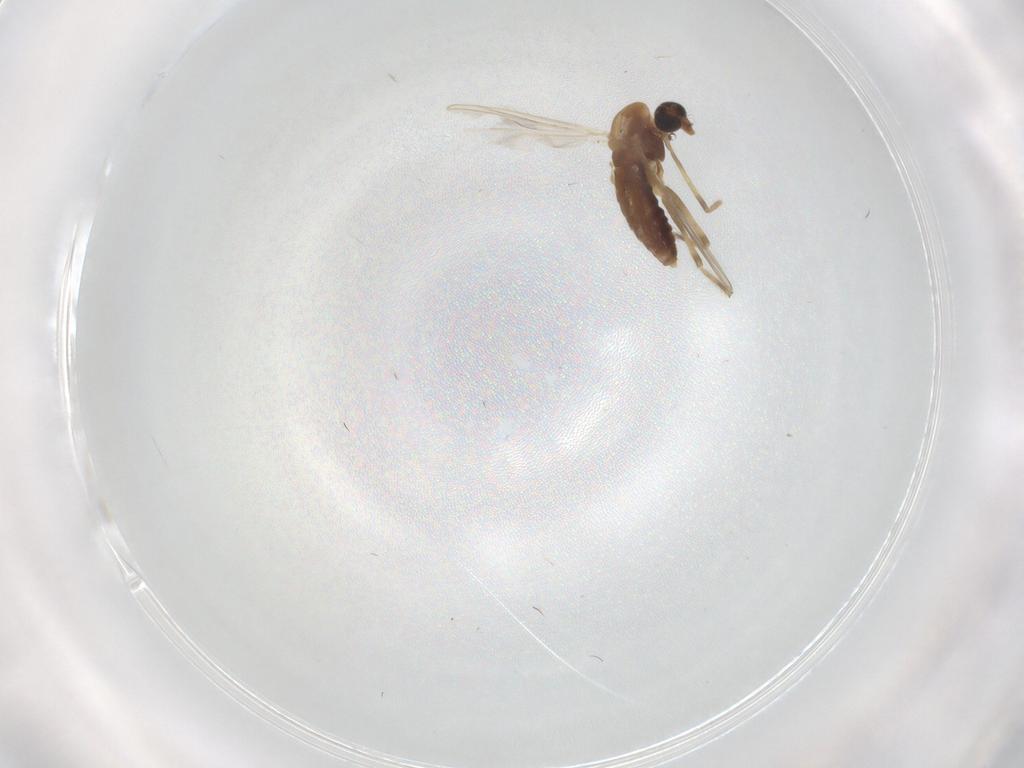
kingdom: Animalia
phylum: Arthropoda
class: Insecta
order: Diptera
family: Chironomidae
